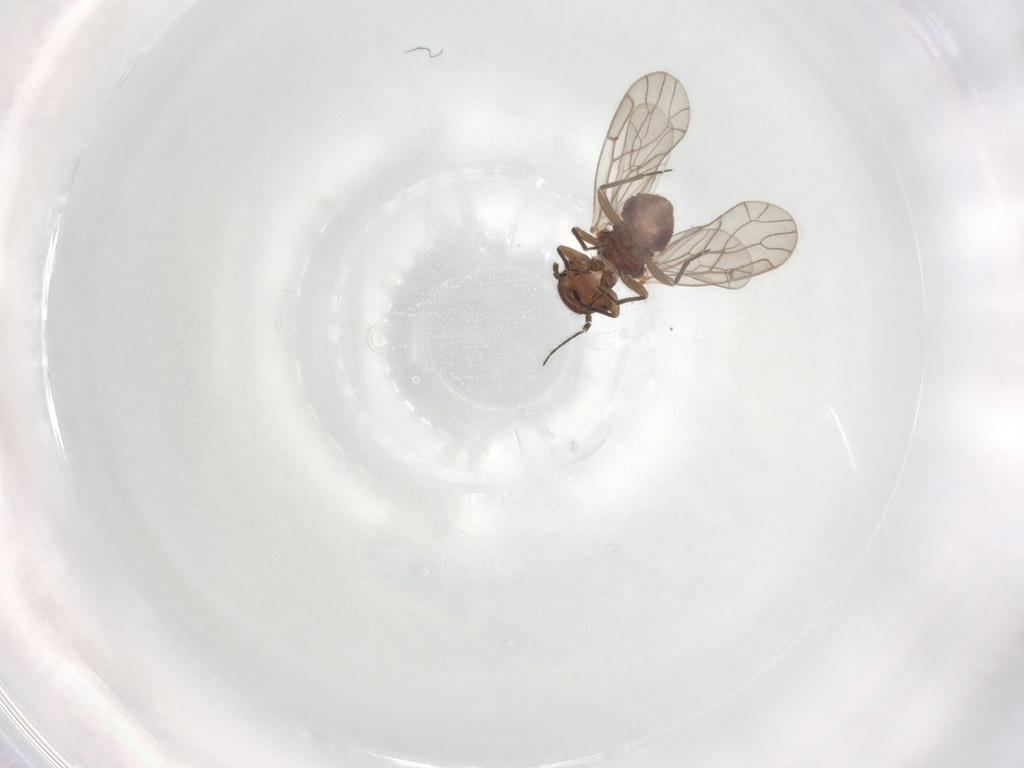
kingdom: Animalia
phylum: Arthropoda
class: Insecta
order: Psocodea
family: Ectopsocidae
